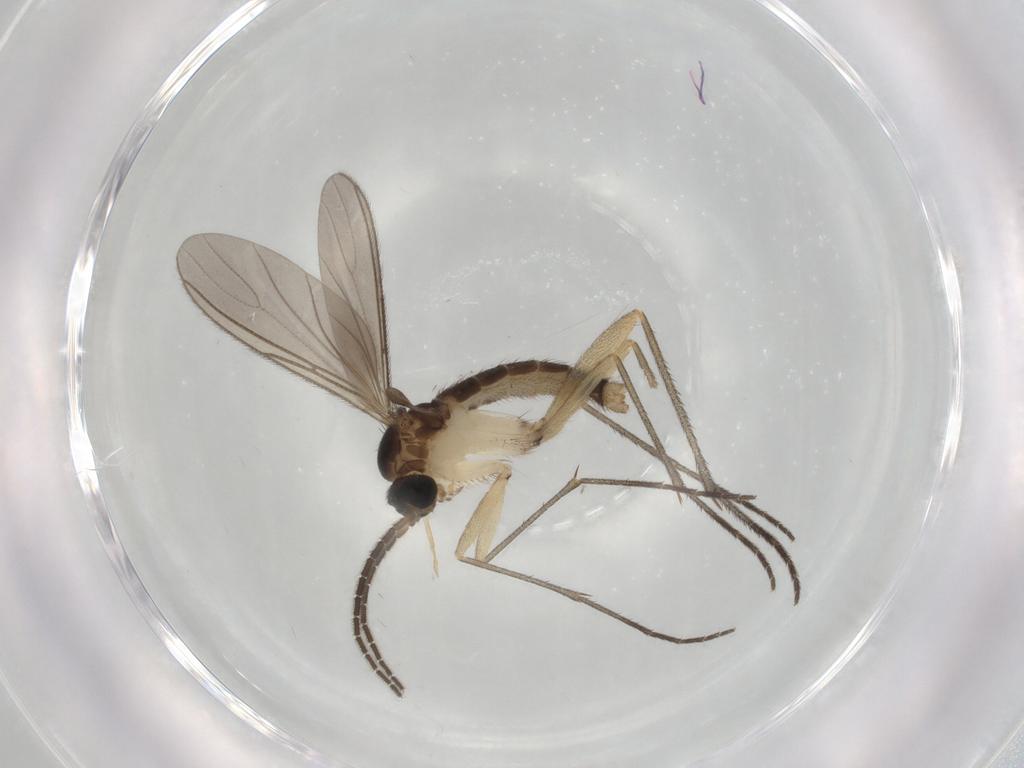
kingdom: Animalia
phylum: Arthropoda
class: Insecta
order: Diptera
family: Sciaridae
